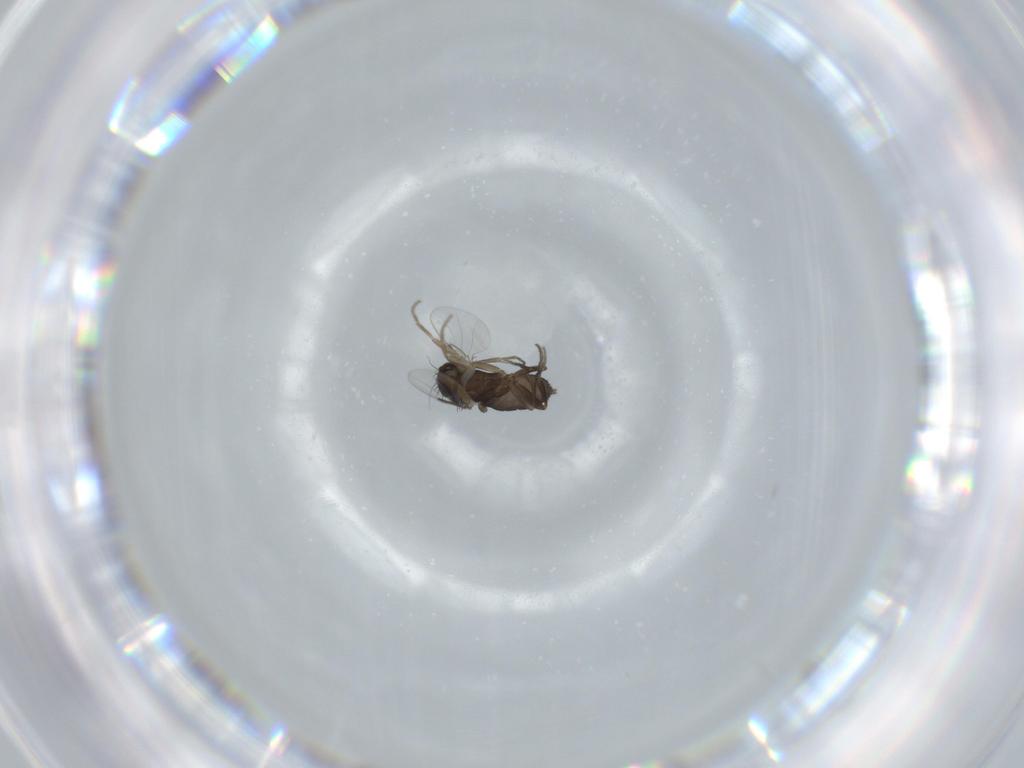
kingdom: Animalia
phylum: Arthropoda
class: Insecta
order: Diptera
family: Phoridae
